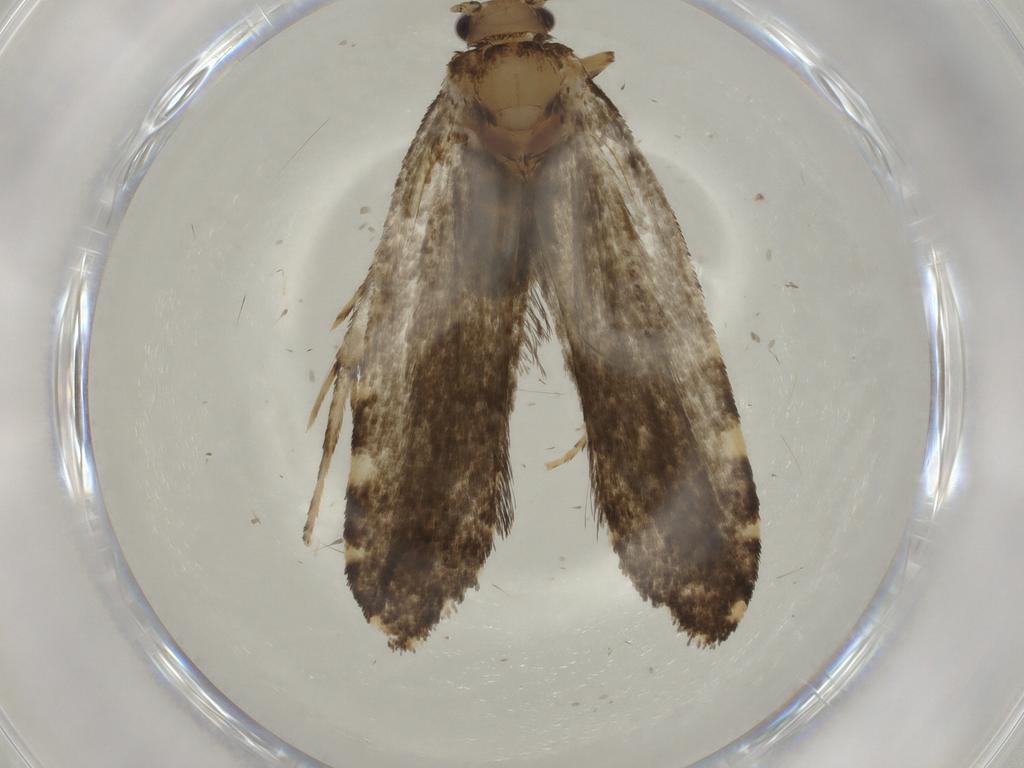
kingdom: Animalia
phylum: Arthropoda
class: Insecta
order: Lepidoptera
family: Tineidae
